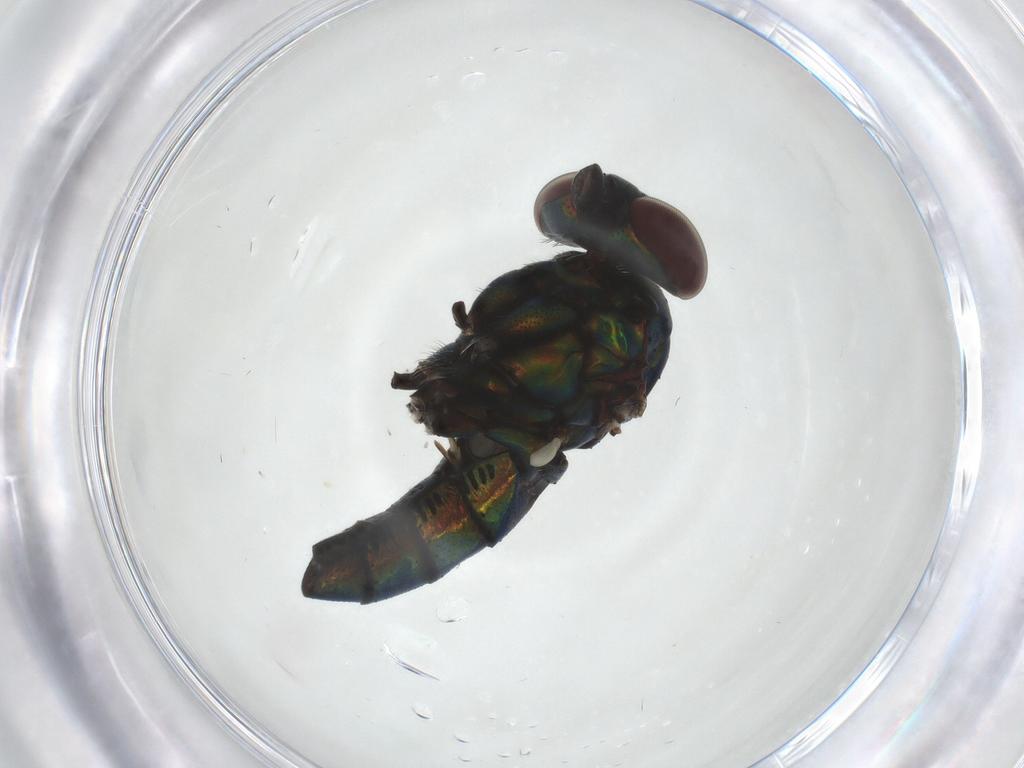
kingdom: Animalia
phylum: Arthropoda
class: Insecta
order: Diptera
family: Dolichopodidae
